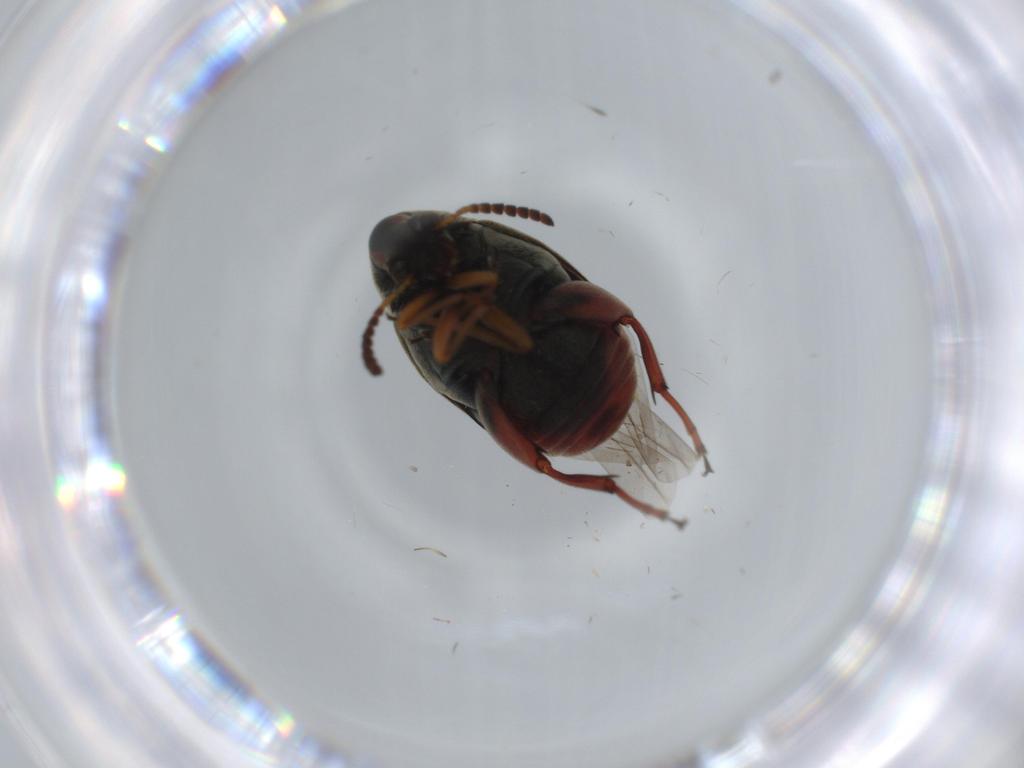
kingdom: Animalia
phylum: Arthropoda
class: Insecta
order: Coleoptera
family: Chrysomelidae
